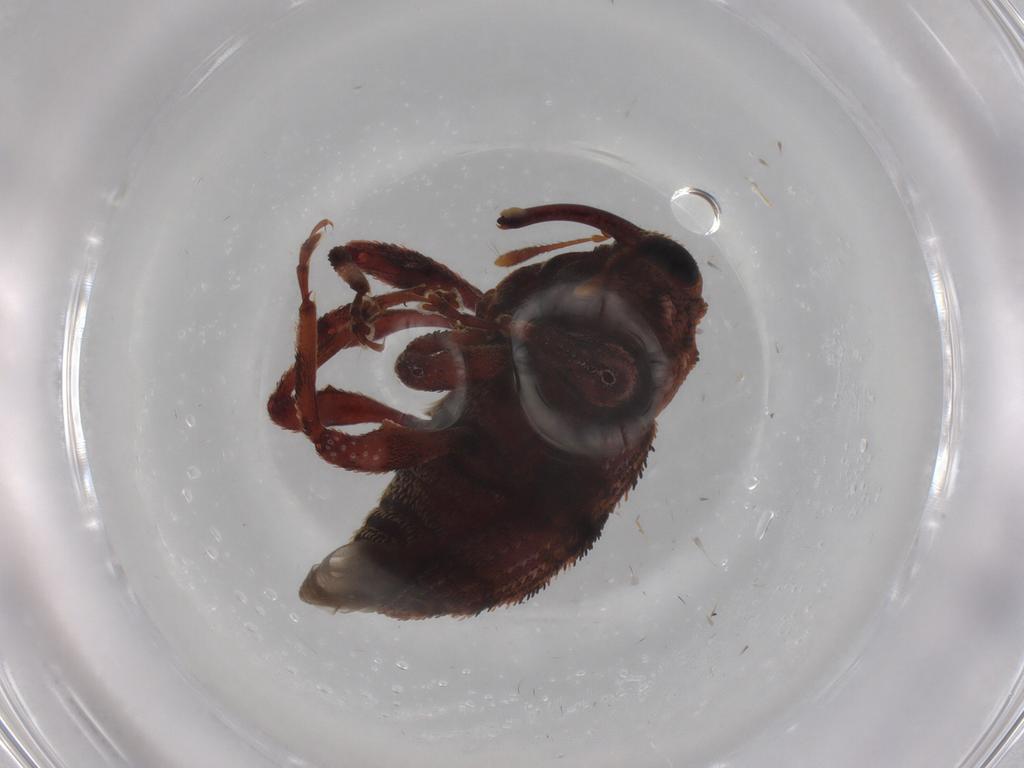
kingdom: Animalia
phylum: Arthropoda
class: Insecta
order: Coleoptera
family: Curculionidae
